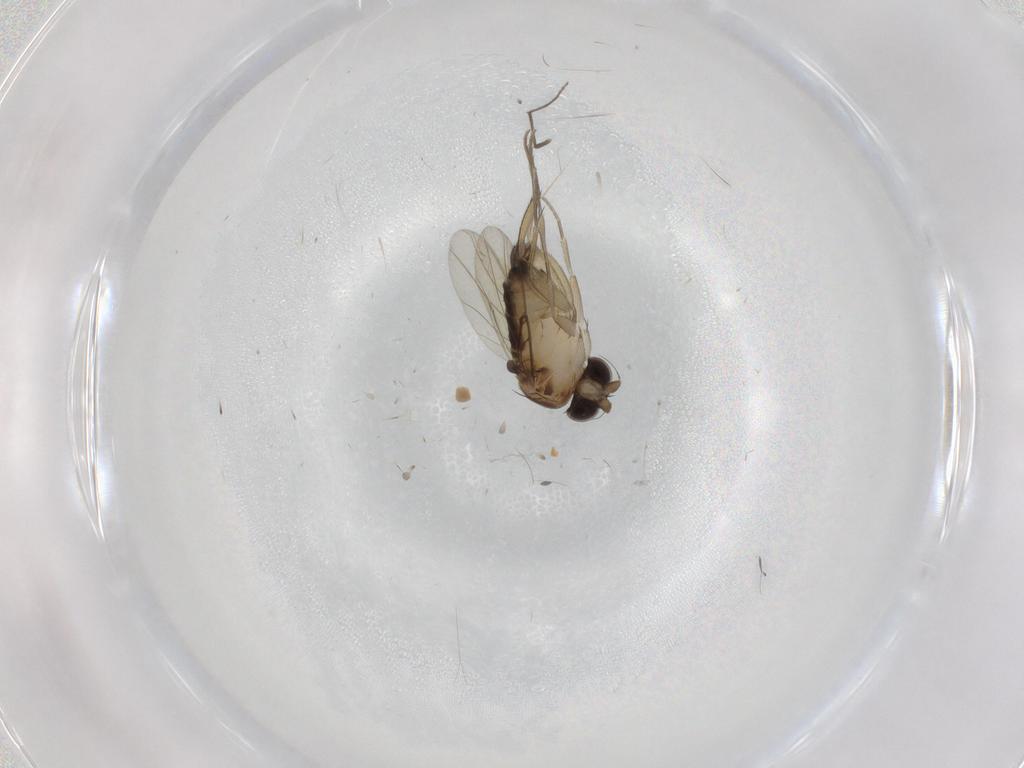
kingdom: Animalia
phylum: Arthropoda
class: Insecta
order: Diptera
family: Phoridae
